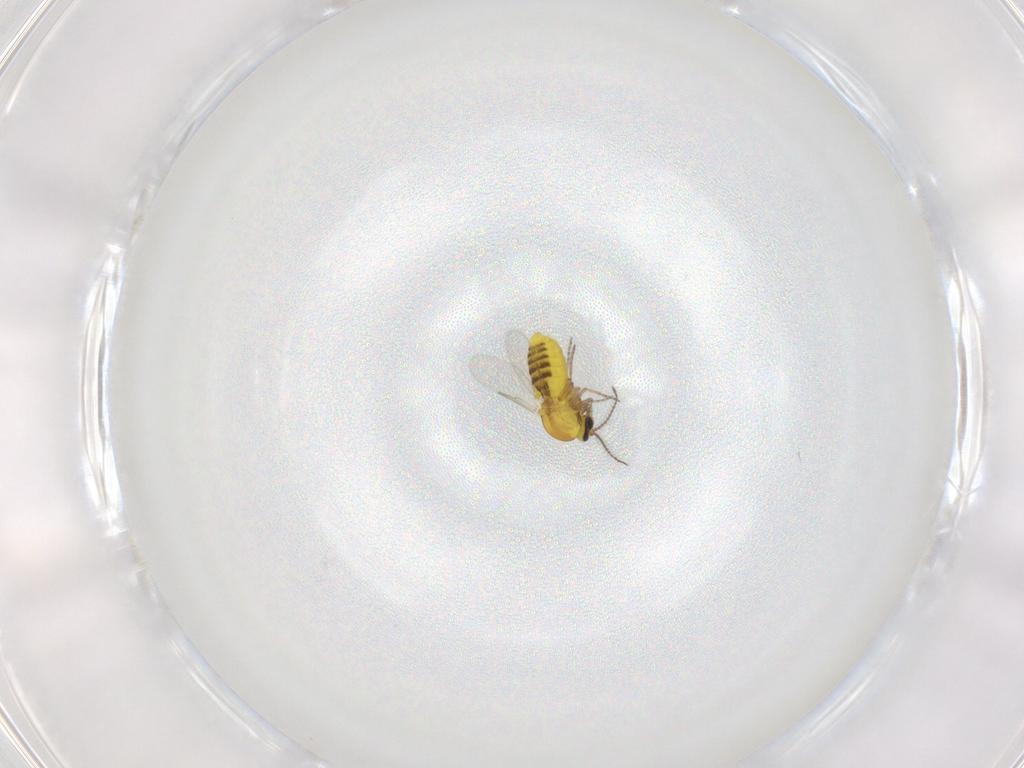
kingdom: Animalia
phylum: Arthropoda
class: Insecta
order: Diptera
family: Ceratopogonidae
